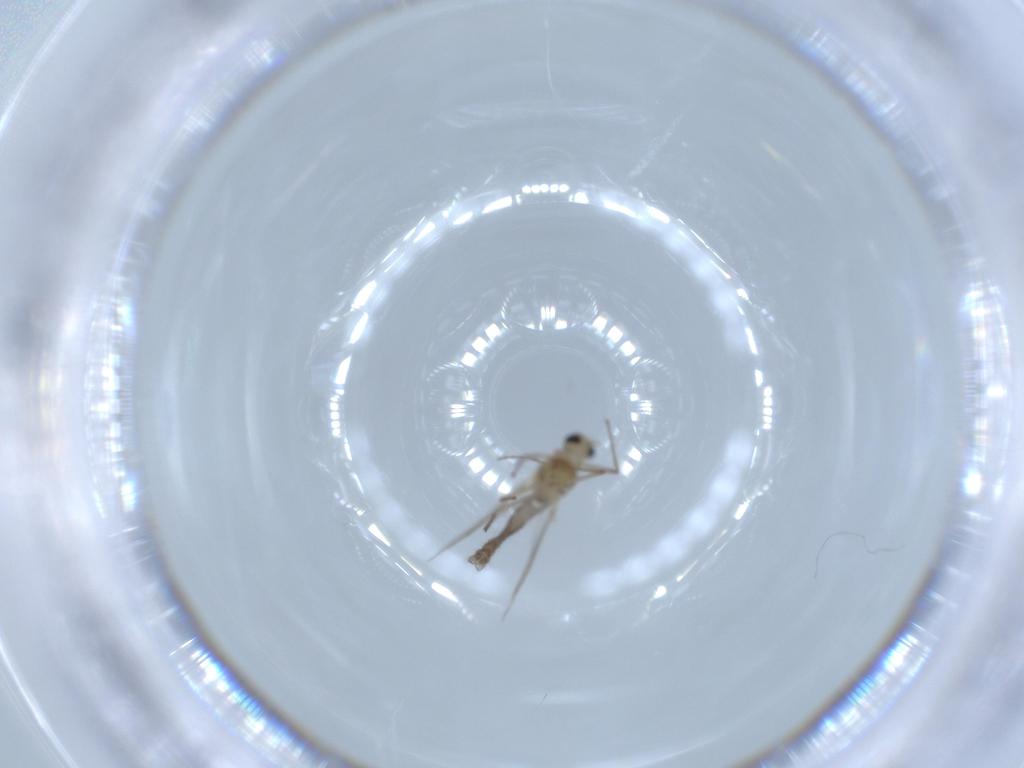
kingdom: Animalia
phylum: Arthropoda
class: Insecta
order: Diptera
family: Chironomidae
